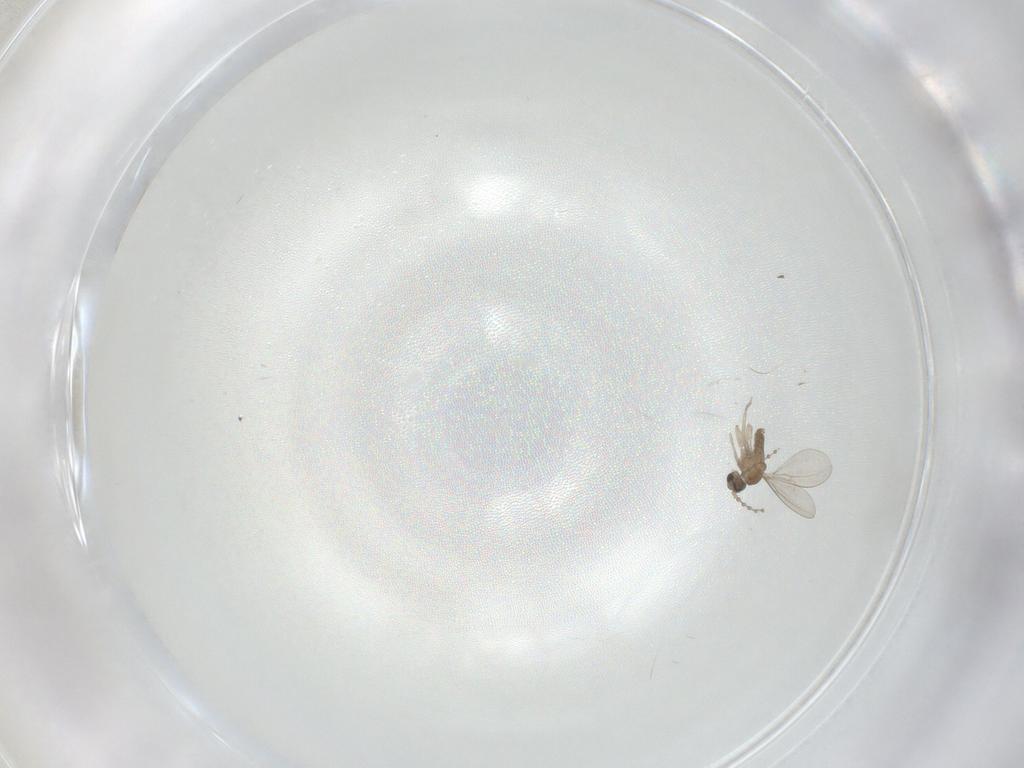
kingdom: Animalia
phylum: Arthropoda
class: Insecta
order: Diptera
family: Cecidomyiidae
